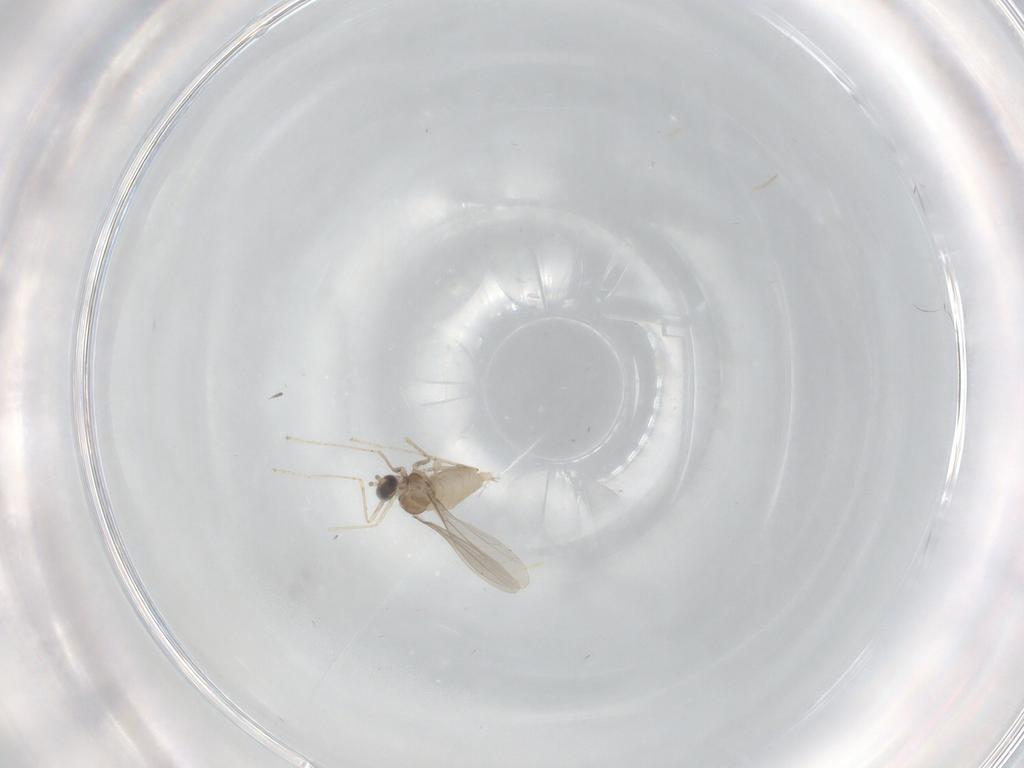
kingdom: Animalia
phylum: Arthropoda
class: Insecta
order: Diptera
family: Cecidomyiidae
